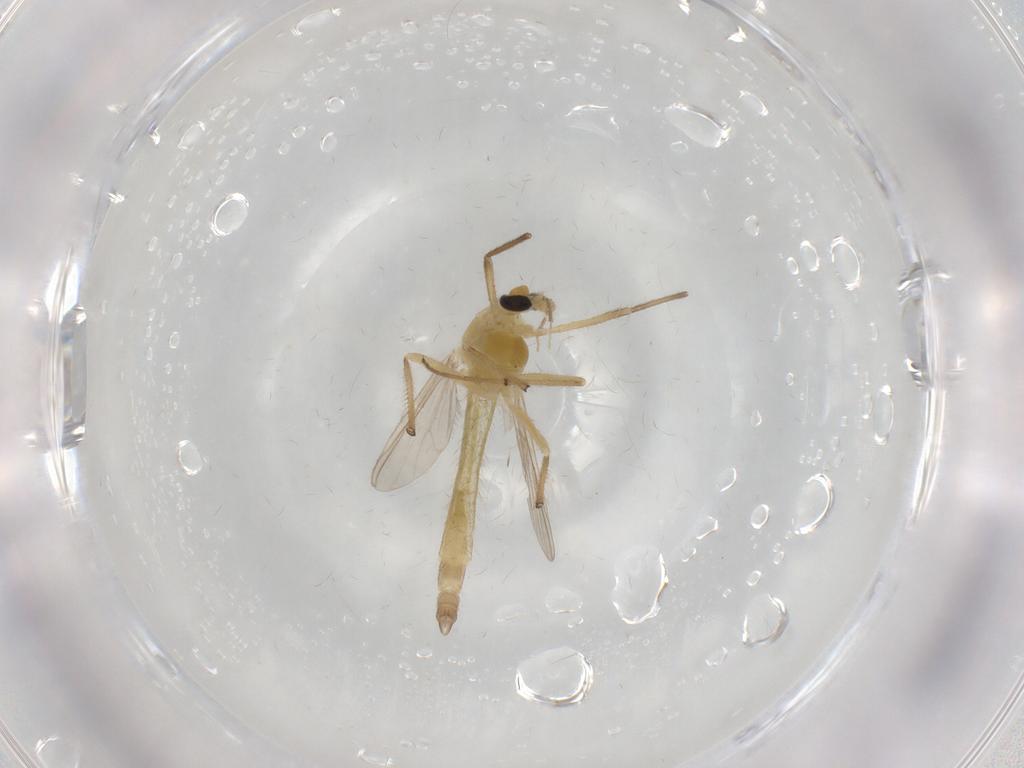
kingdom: Animalia
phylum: Arthropoda
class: Insecta
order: Diptera
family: Chironomidae
